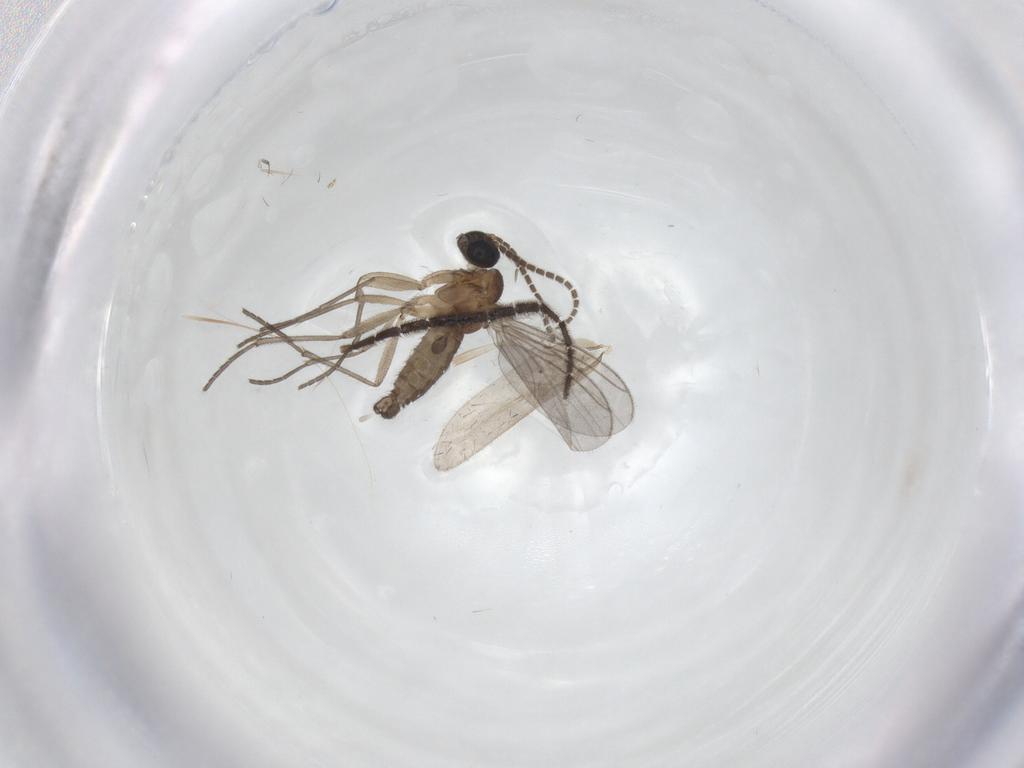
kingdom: Animalia
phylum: Arthropoda
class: Insecta
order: Diptera
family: Sciaridae
